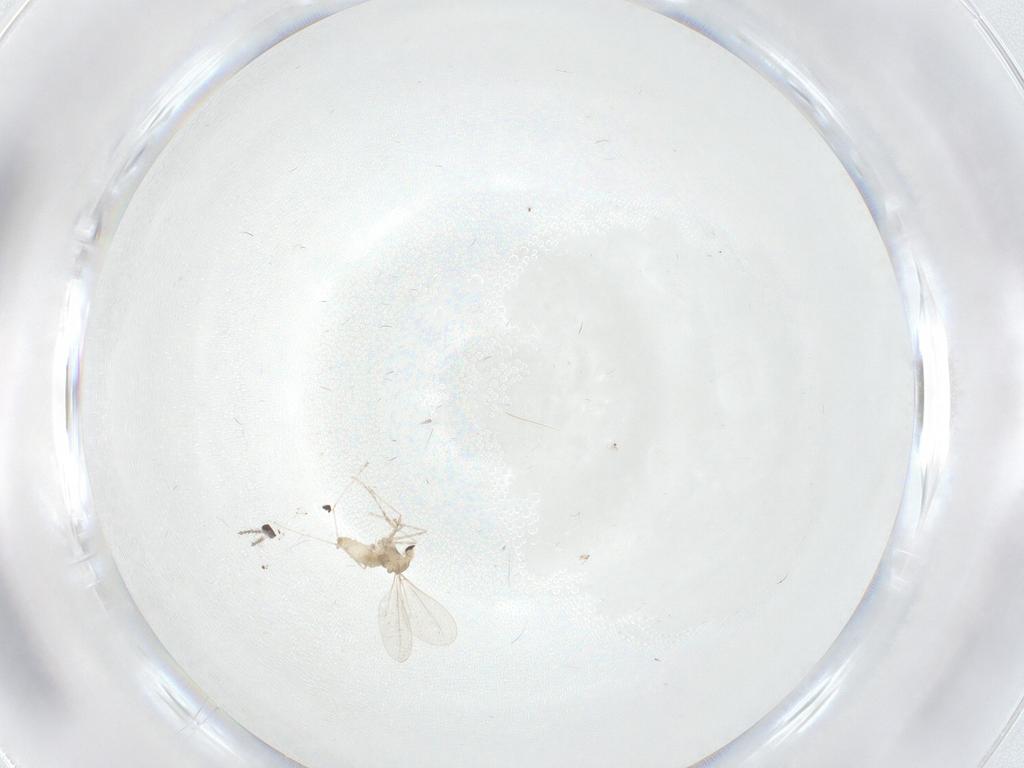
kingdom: Animalia
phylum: Arthropoda
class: Insecta
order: Diptera
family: Cecidomyiidae
